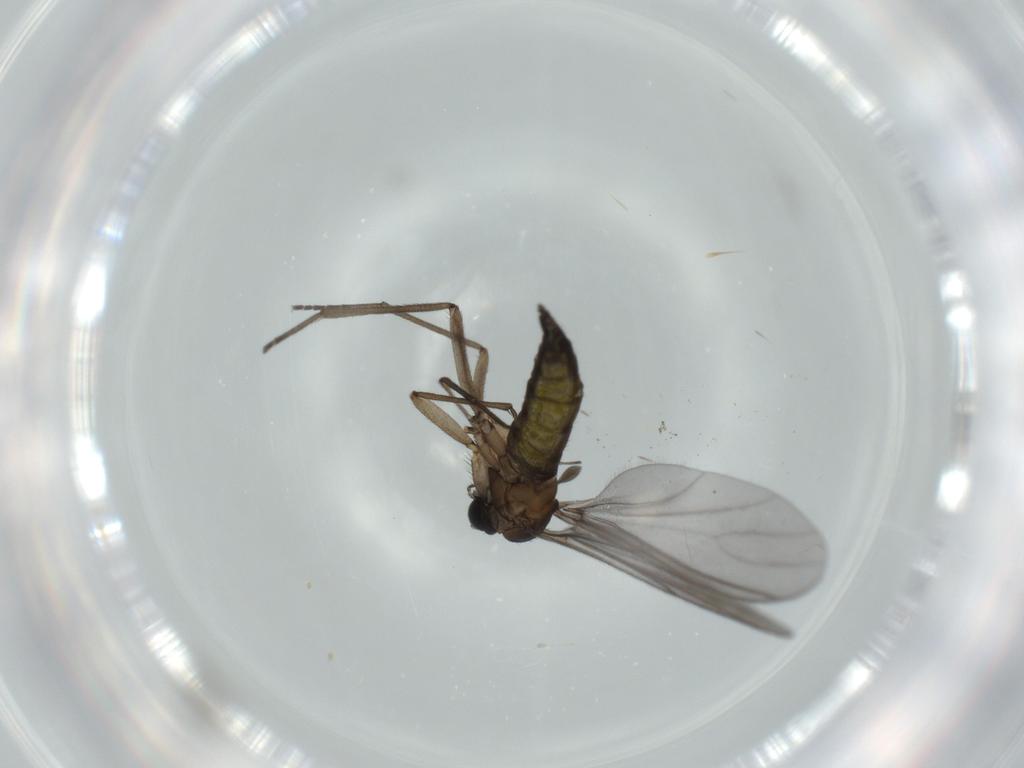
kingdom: Animalia
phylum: Arthropoda
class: Insecta
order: Diptera
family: Sciaridae
